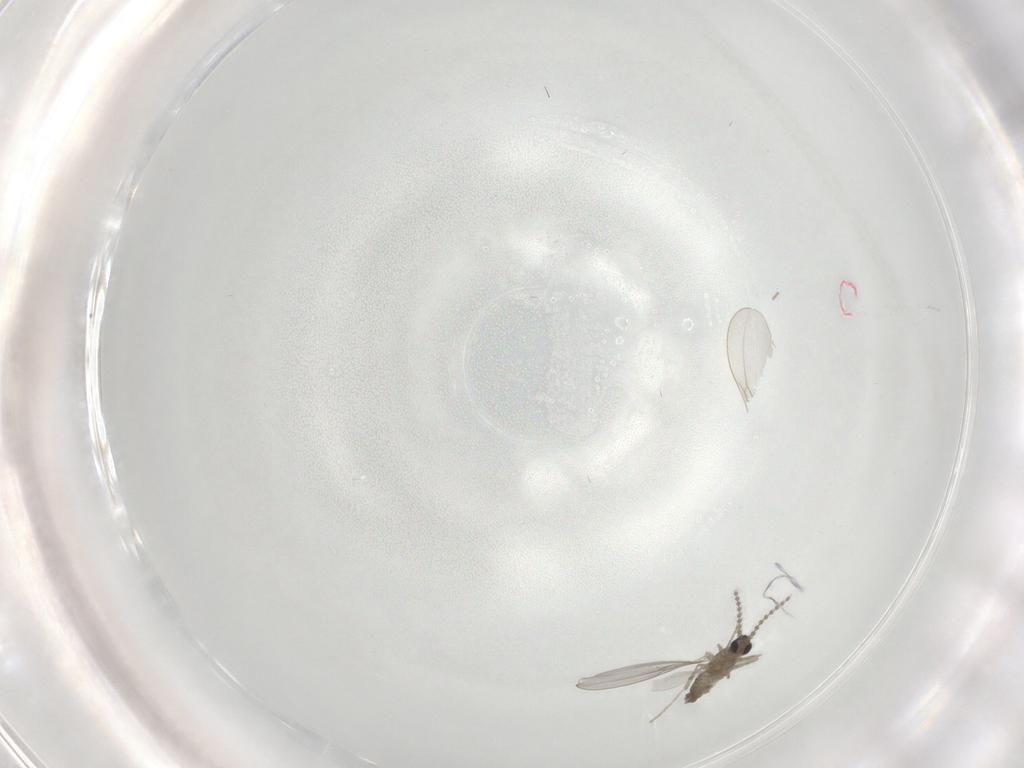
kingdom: Animalia
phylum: Arthropoda
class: Insecta
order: Diptera
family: Cecidomyiidae
